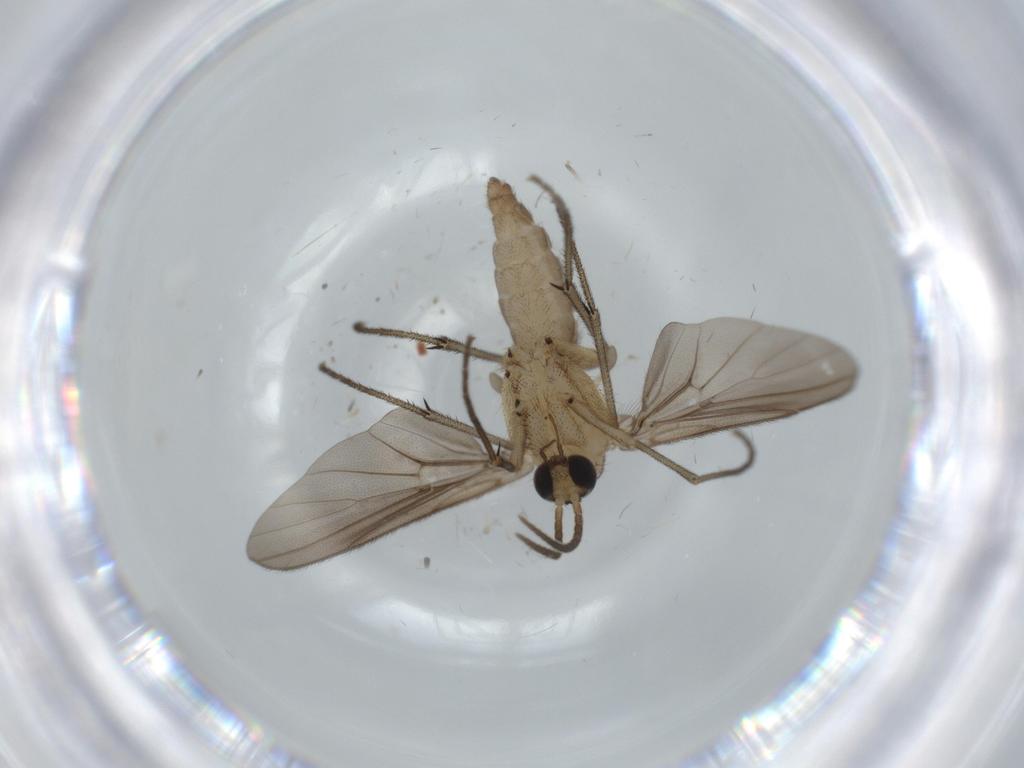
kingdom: Animalia
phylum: Arthropoda
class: Insecta
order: Diptera
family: Sciaridae
